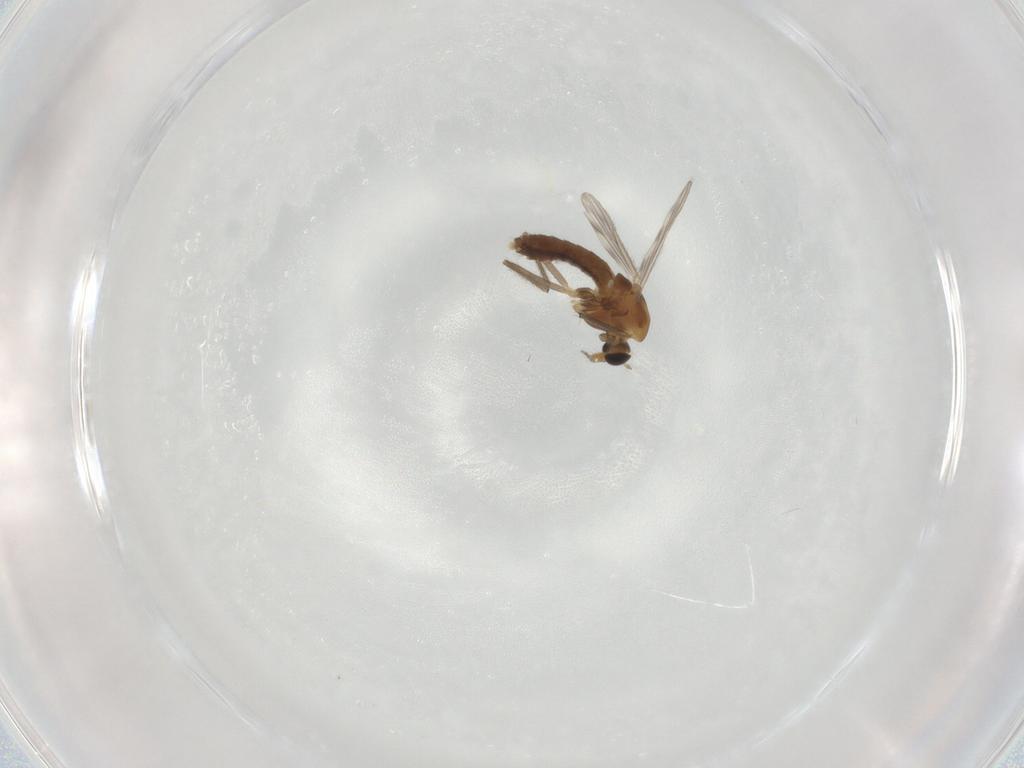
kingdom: Animalia
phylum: Arthropoda
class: Insecta
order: Diptera
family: Chironomidae
